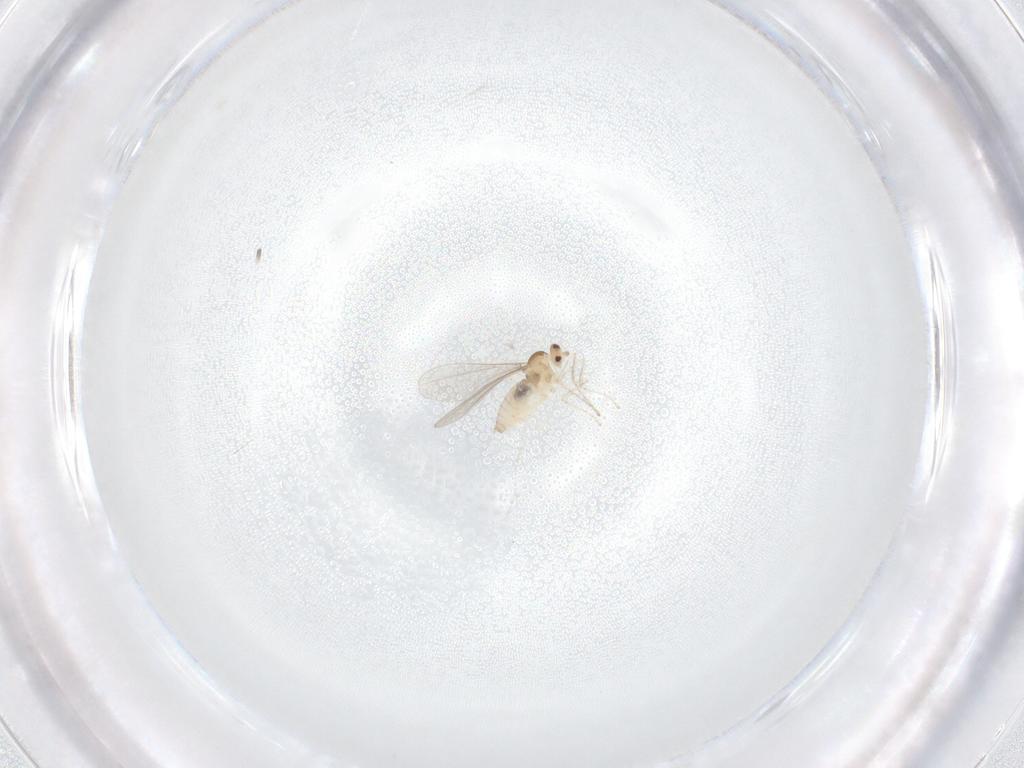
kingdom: Animalia
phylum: Arthropoda
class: Insecta
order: Diptera
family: Cecidomyiidae
